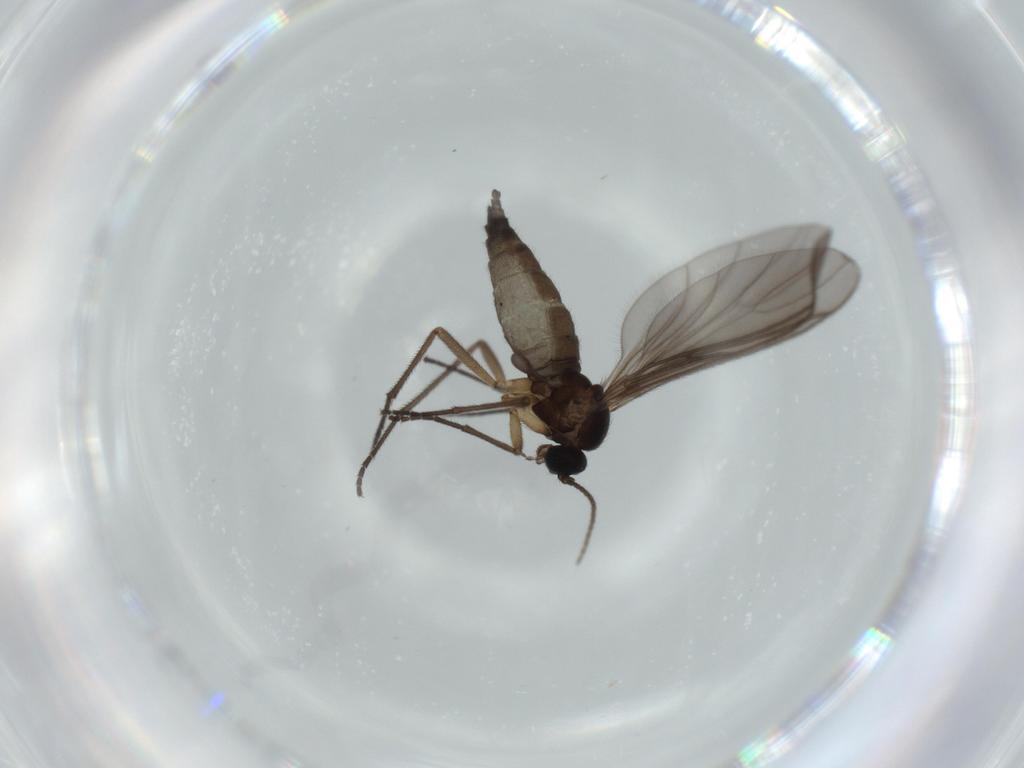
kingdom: Animalia
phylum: Arthropoda
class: Insecta
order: Diptera
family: Sciaridae
